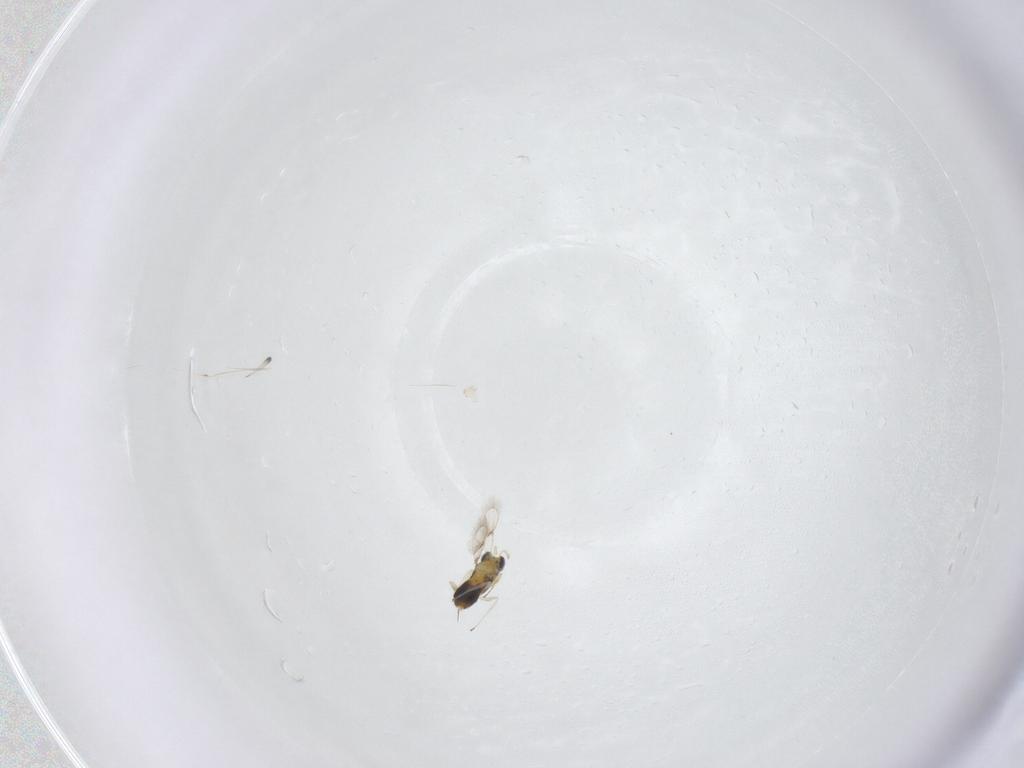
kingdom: Animalia
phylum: Arthropoda
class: Insecta
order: Hymenoptera
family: Trichogrammatidae
